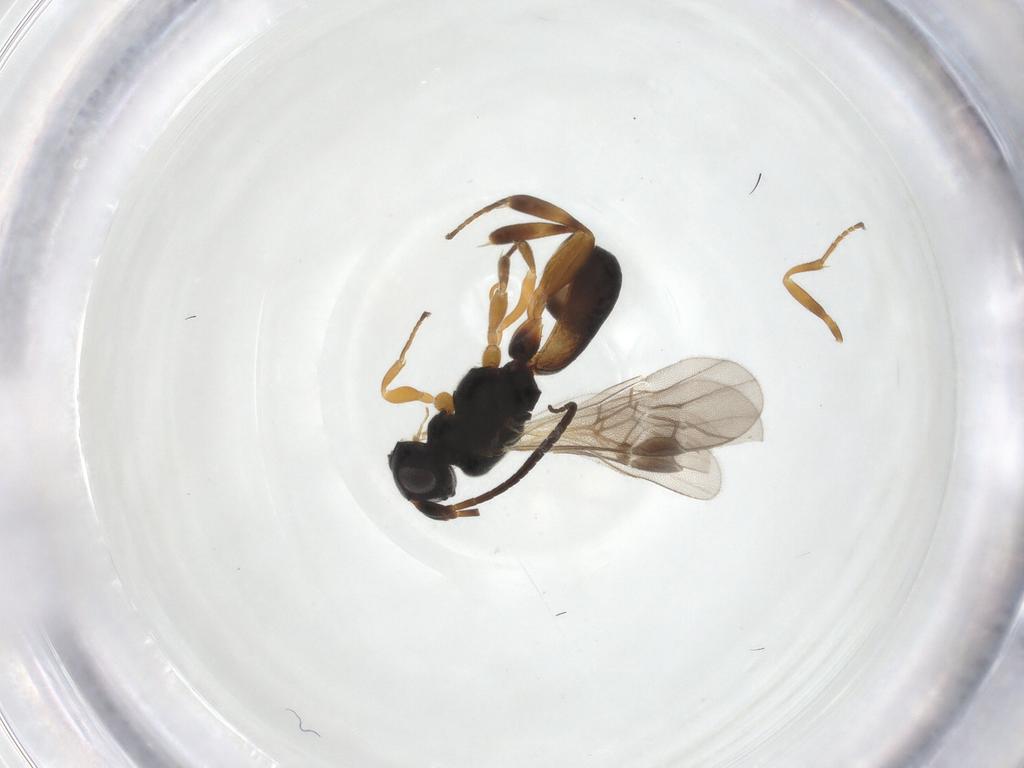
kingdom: Animalia
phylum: Arthropoda
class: Insecta
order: Hymenoptera
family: Braconidae
